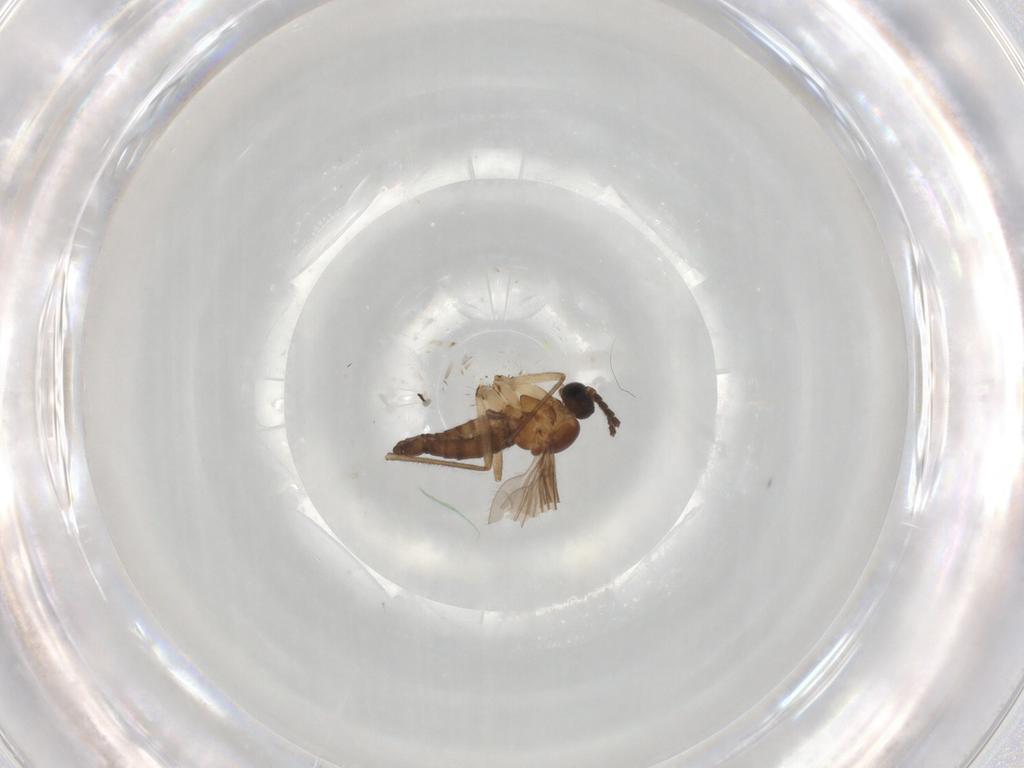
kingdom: Animalia
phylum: Arthropoda
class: Insecta
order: Diptera
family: Sciaridae
